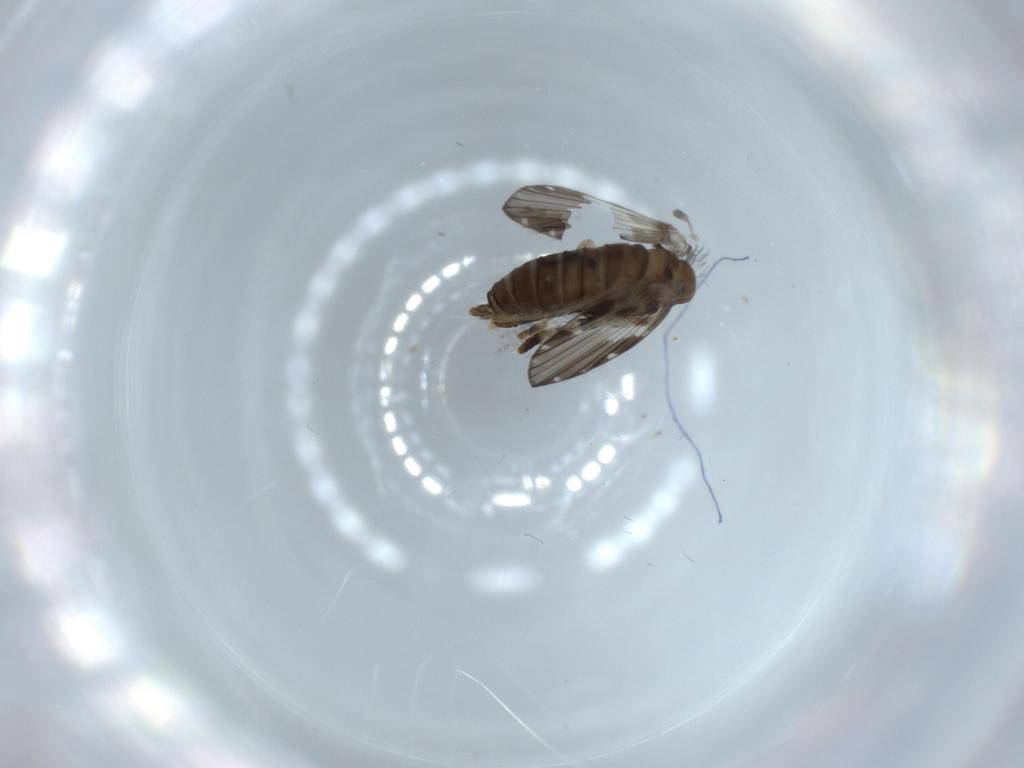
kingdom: Animalia
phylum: Arthropoda
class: Insecta
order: Diptera
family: Psychodidae
